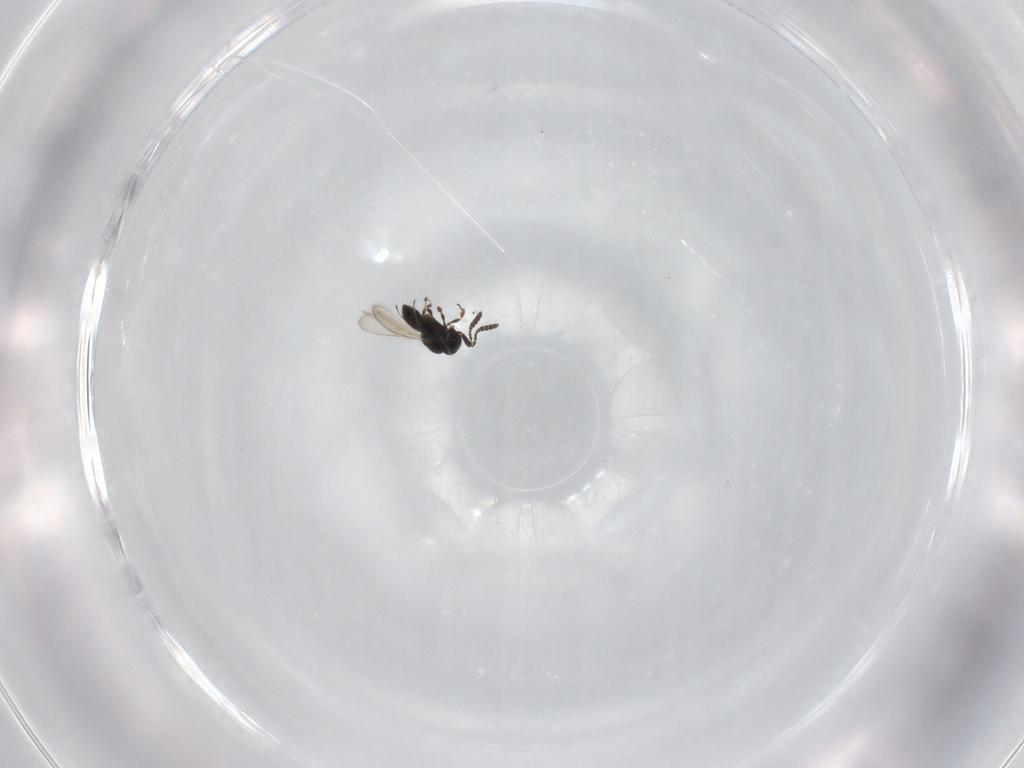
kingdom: Animalia
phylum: Arthropoda
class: Insecta
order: Hymenoptera
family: Scelionidae
